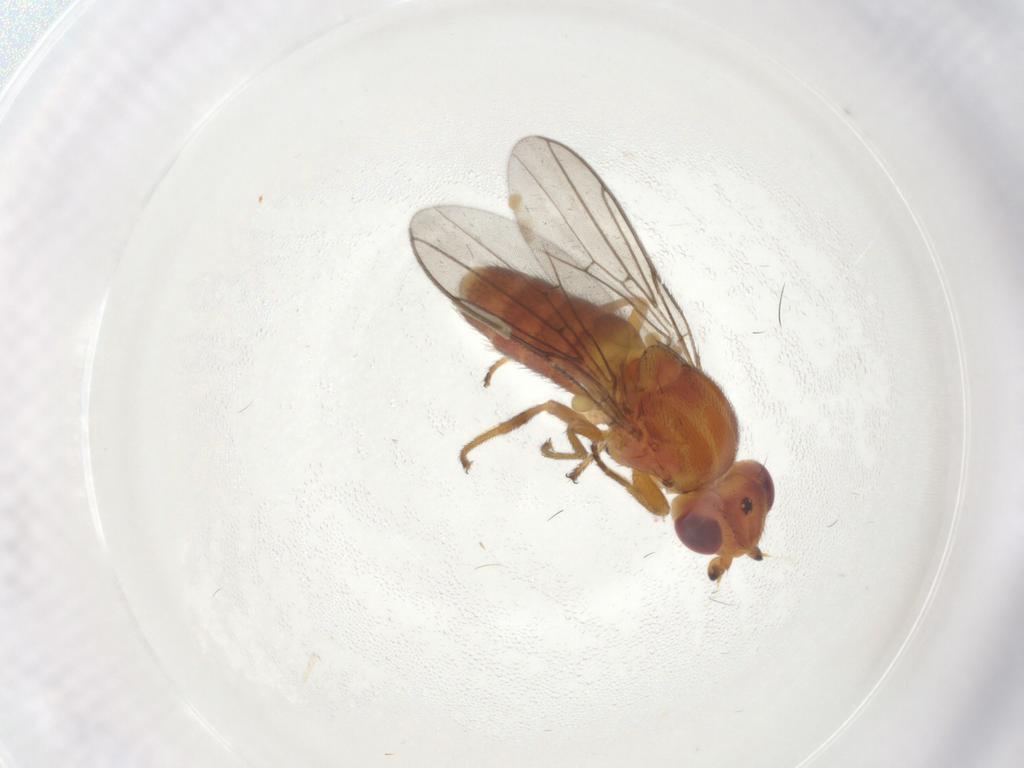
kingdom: Animalia
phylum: Arthropoda
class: Insecta
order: Diptera
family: Chloropidae
